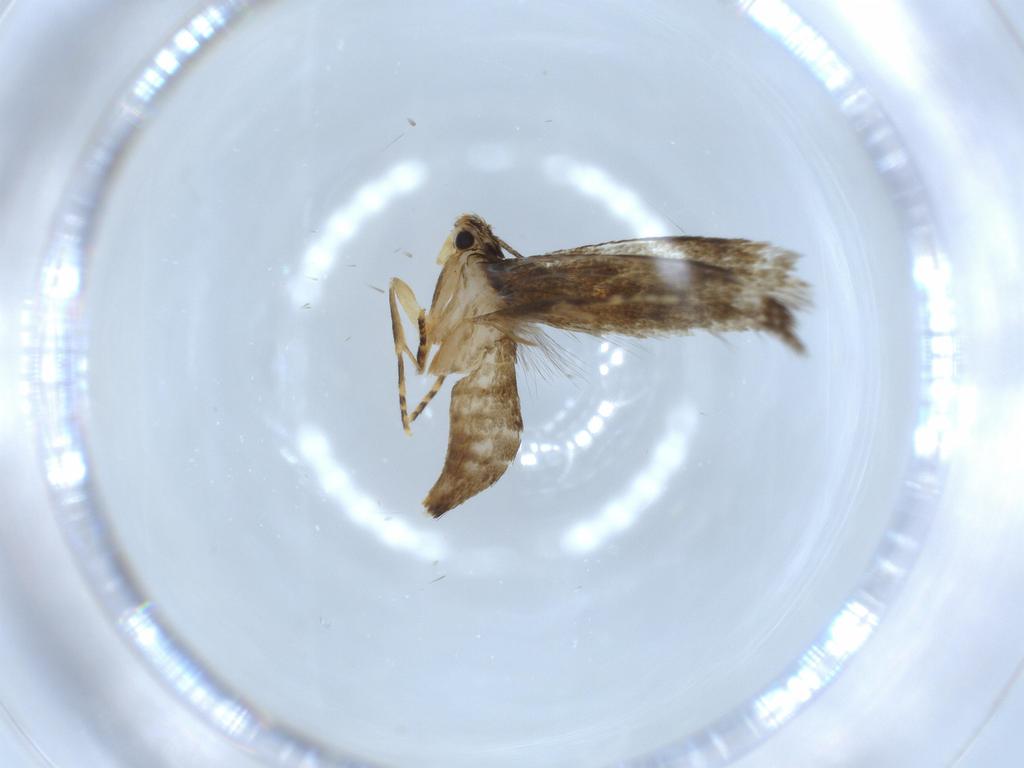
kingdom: Animalia
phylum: Arthropoda
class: Insecta
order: Lepidoptera
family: Tineidae
